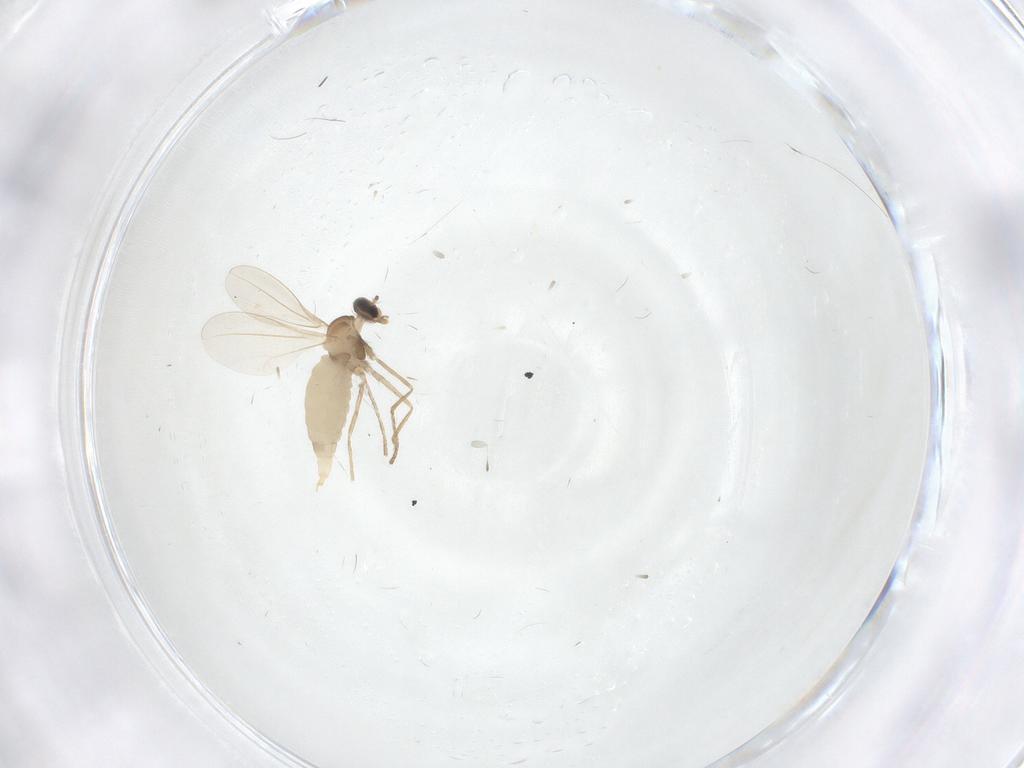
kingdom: Animalia
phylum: Arthropoda
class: Insecta
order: Diptera
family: Cecidomyiidae
